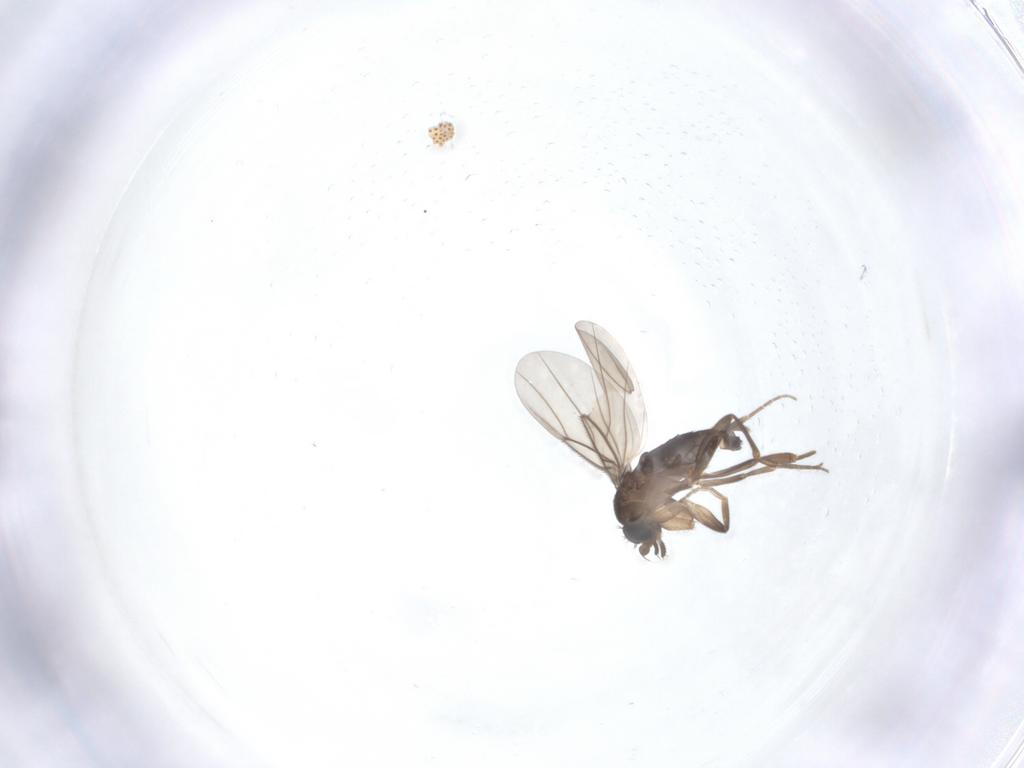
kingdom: Animalia
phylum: Arthropoda
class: Insecta
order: Diptera
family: Phoridae
